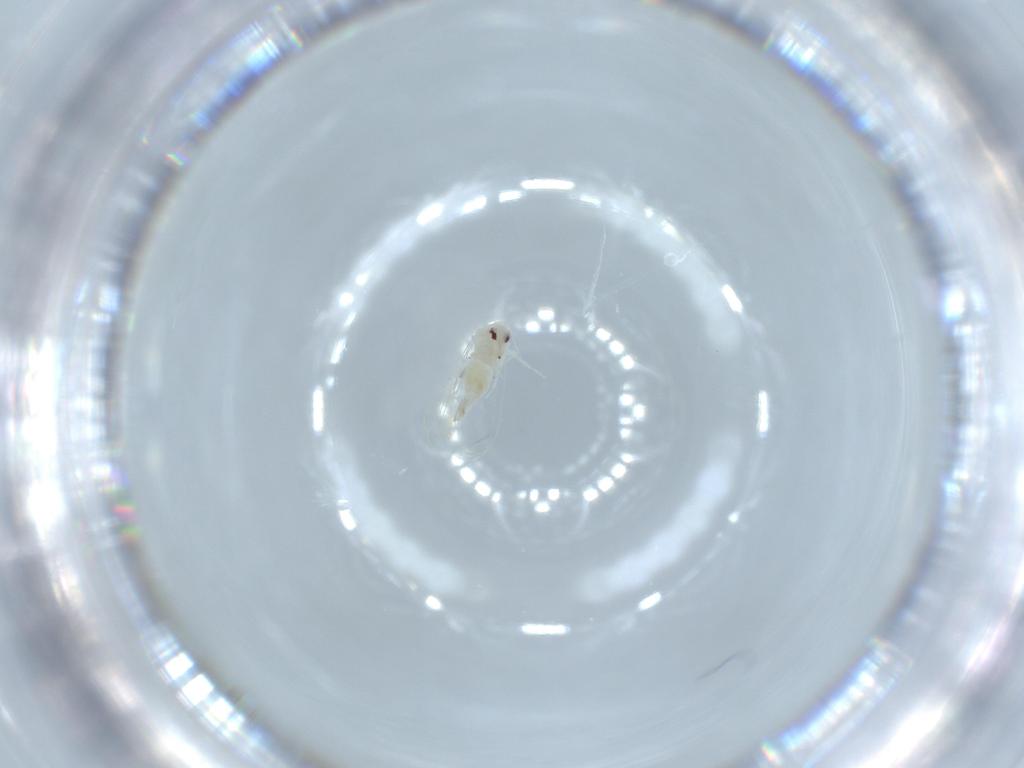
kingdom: Animalia
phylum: Arthropoda
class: Insecta
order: Hemiptera
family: Aleyrodidae
